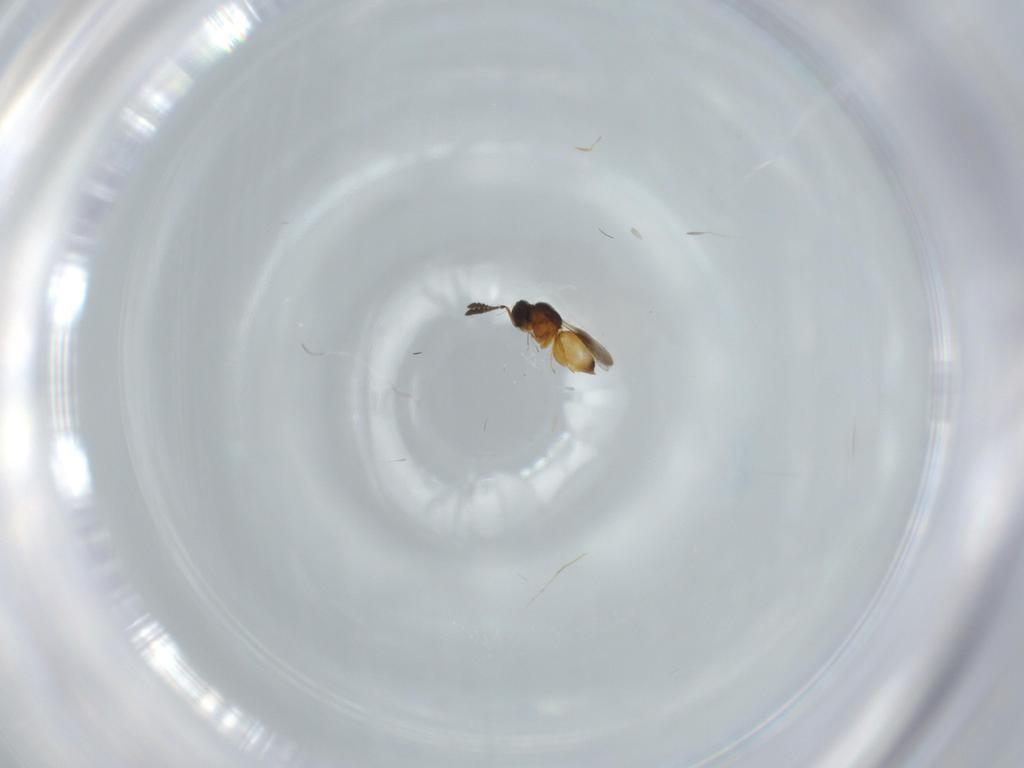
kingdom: Animalia
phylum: Arthropoda
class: Insecta
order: Hymenoptera
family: Ceraphronidae
